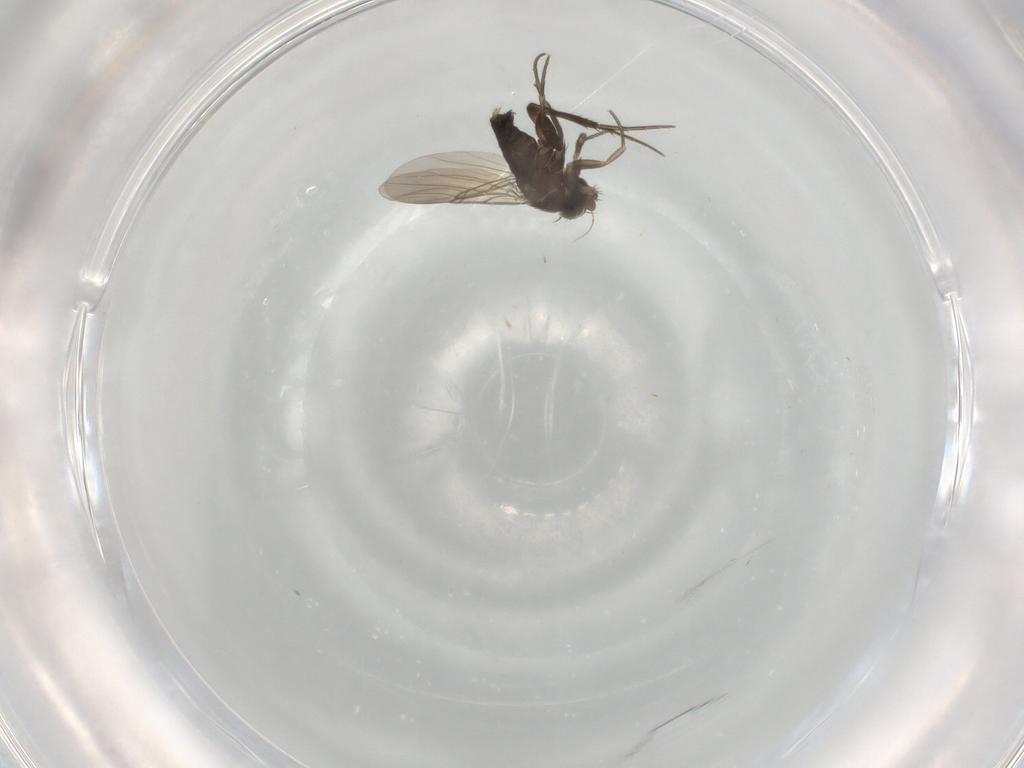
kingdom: Animalia
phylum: Arthropoda
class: Insecta
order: Diptera
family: Phoridae
